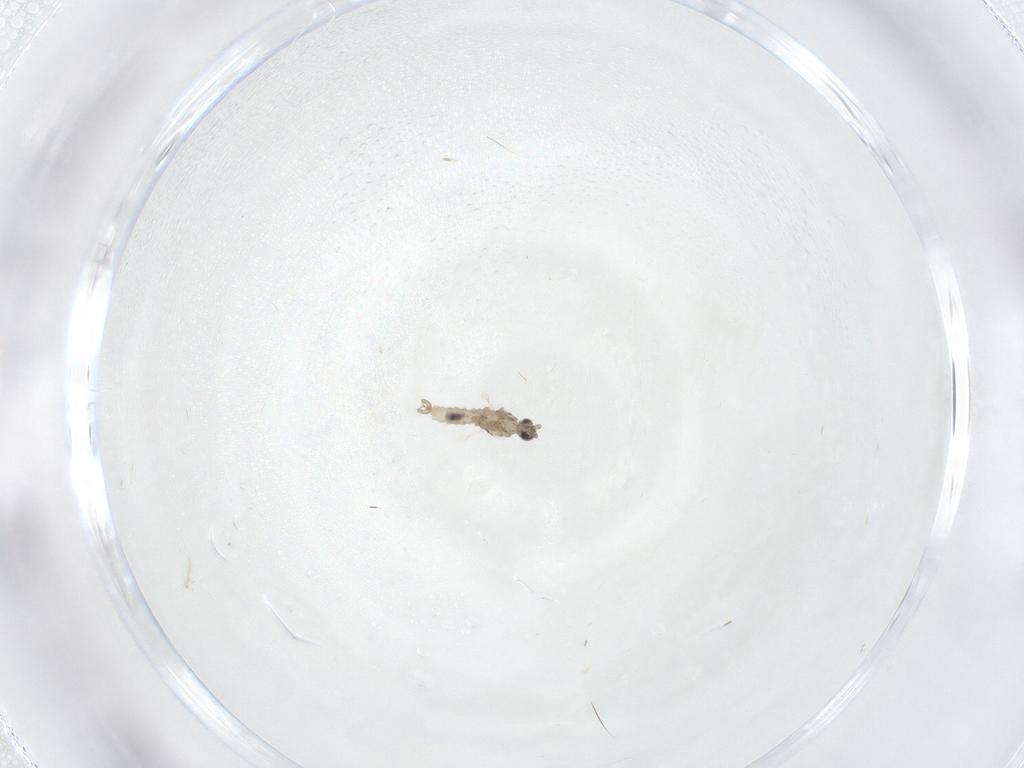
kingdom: Animalia
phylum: Arthropoda
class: Insecta
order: Diptera
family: Cecidomyiidae
